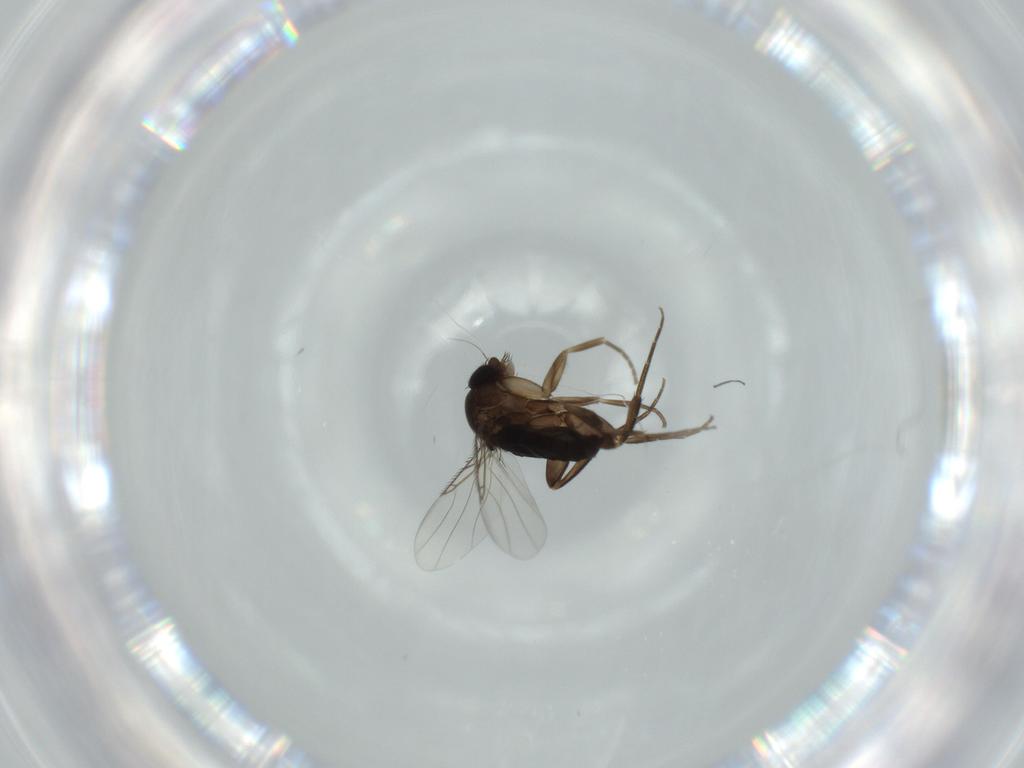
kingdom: Animalia
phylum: Arthropoda
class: Insecta
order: Diptera
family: Phoridae
